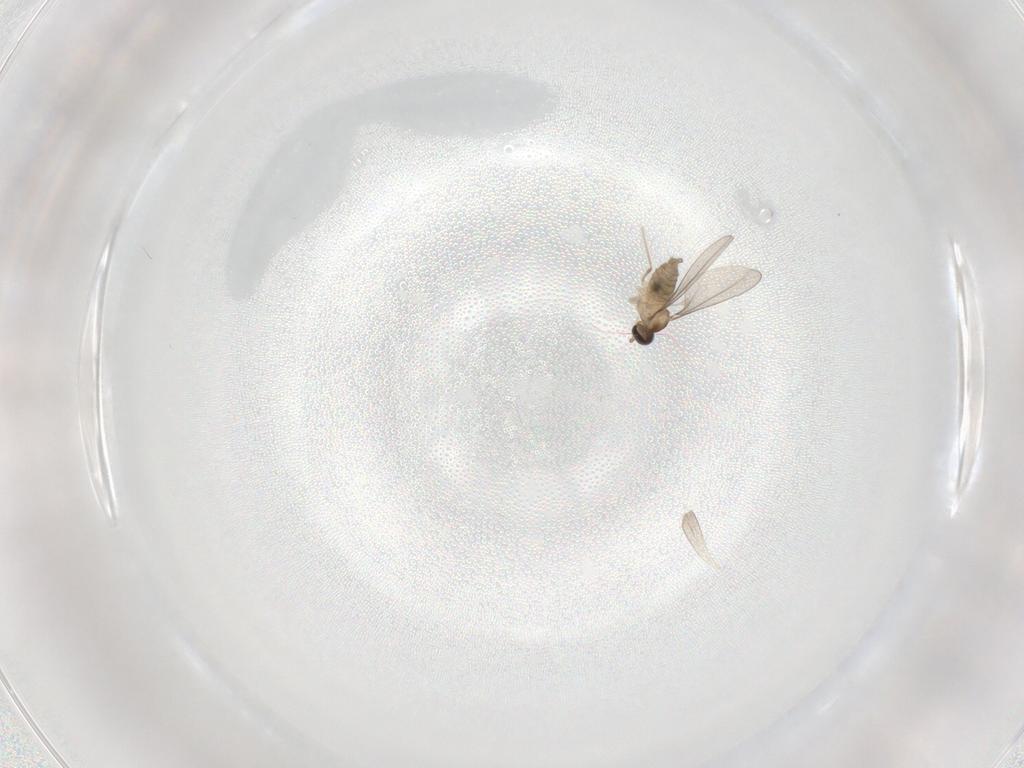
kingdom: Animalia
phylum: Arthropoda
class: Insecta
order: Diptera
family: Cecidomyiidae
